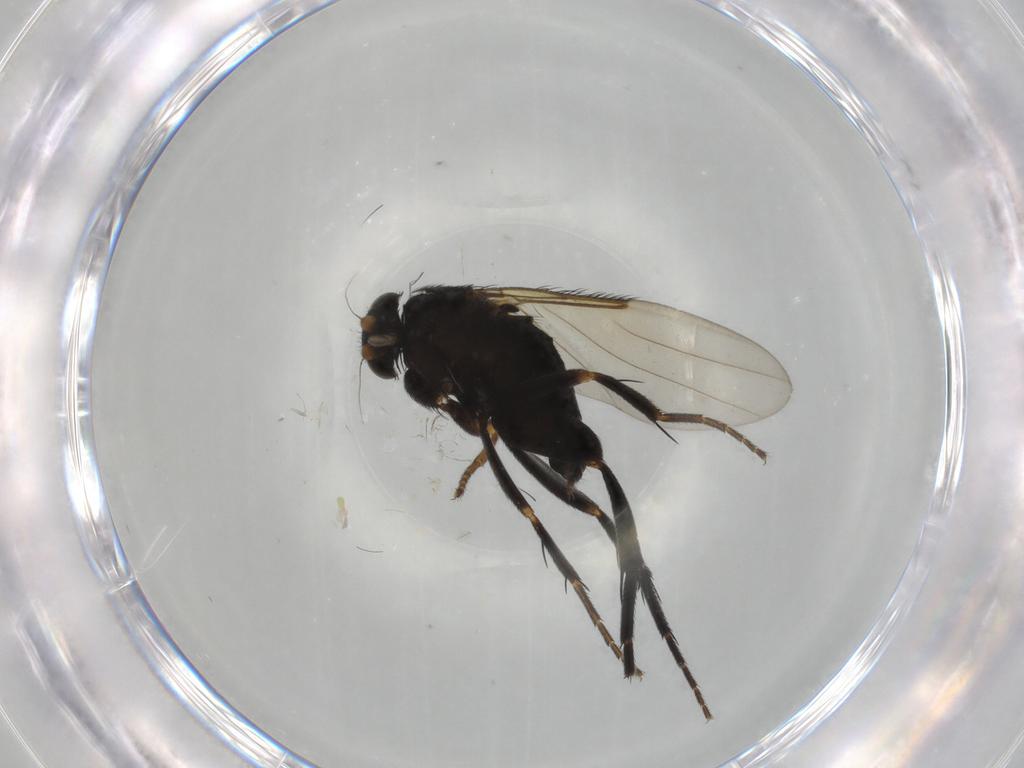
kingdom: Animalia
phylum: Arthropoda
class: Insecta
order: Diptera
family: Phoridae
